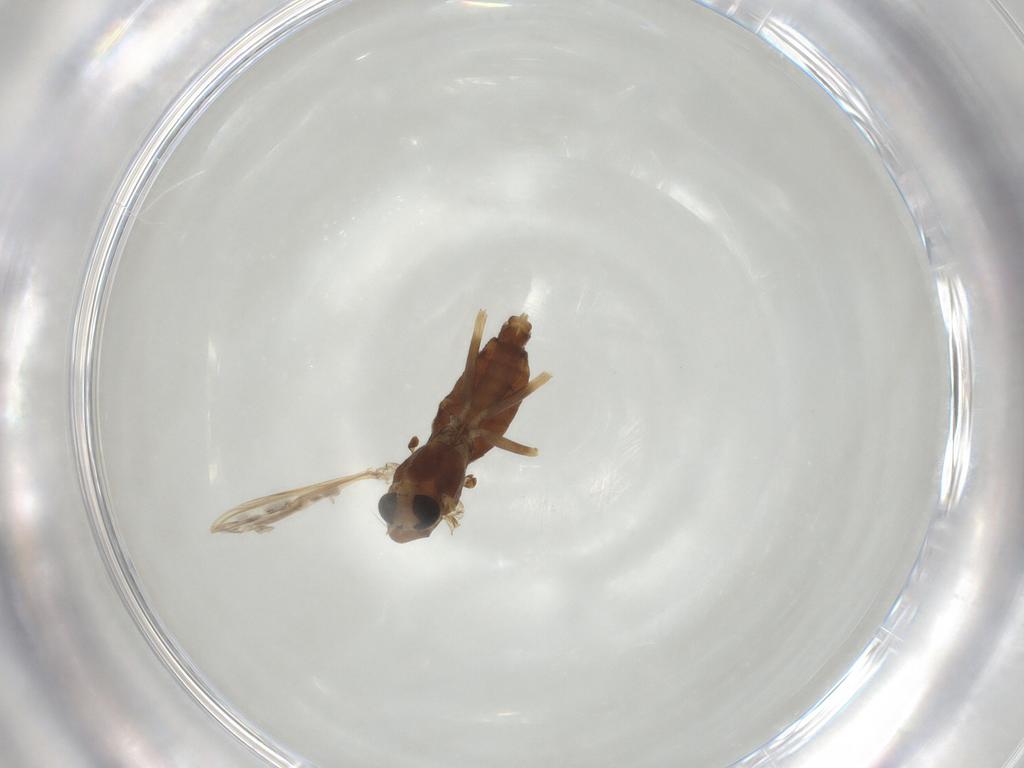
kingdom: Animalia
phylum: Arthropoda
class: Insecta
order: Diptera
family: Chironomidae
